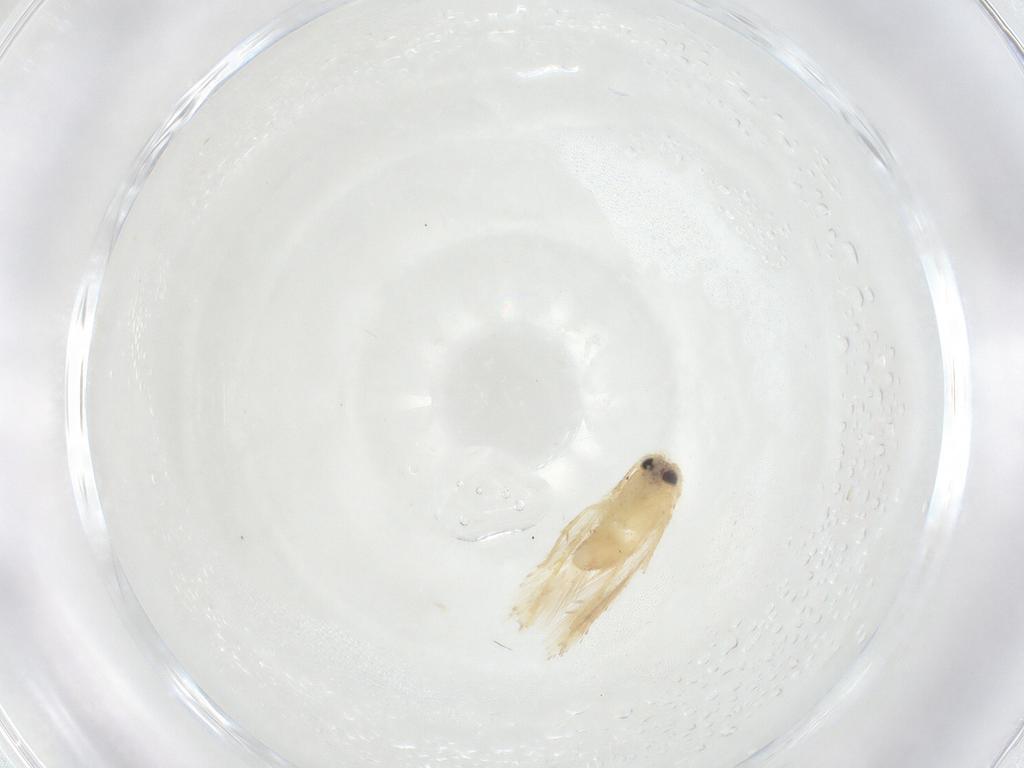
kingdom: Animalia
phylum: Arthropoda
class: Insecta
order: Lepidoptera
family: Nepticulidae
